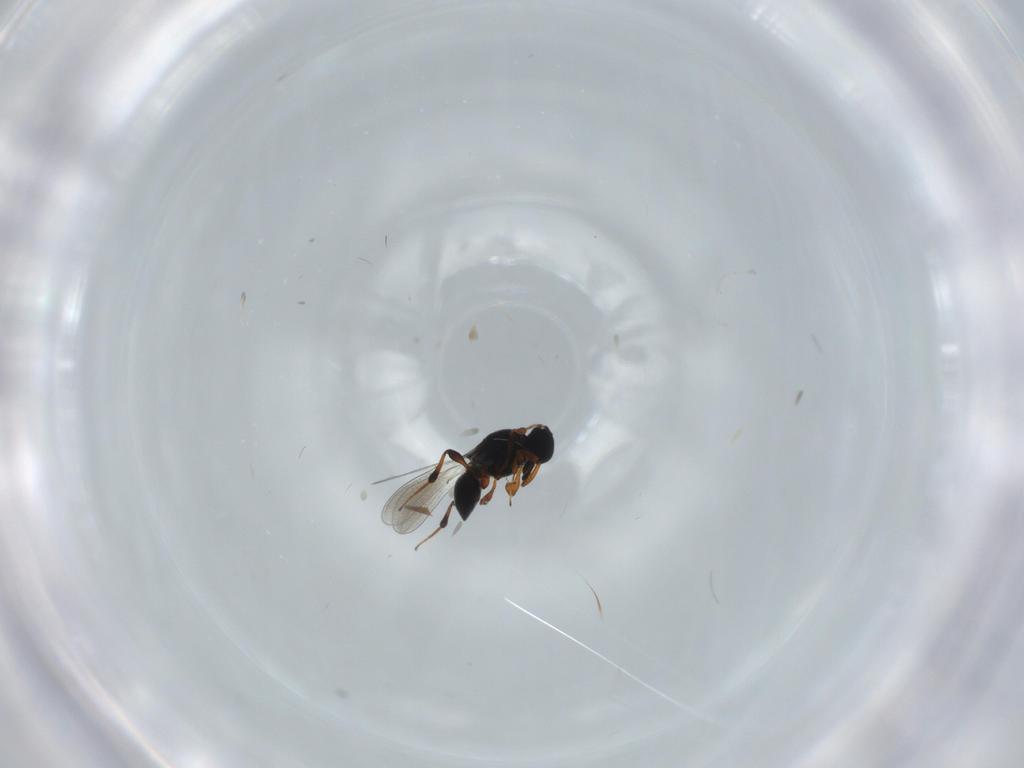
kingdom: Animalia
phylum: Arthropoda
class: Insecta
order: Hymenoptera
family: Platygastridae
